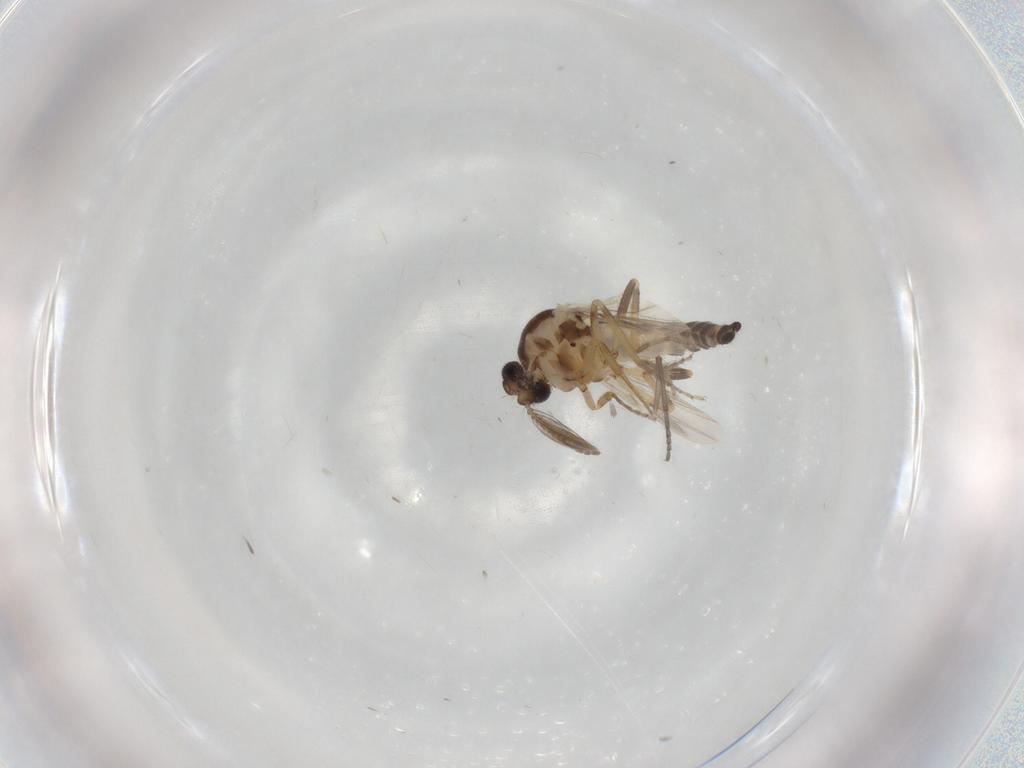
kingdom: Animalia
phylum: Arthropoda
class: Insecta
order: Diptera
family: Ceratopogonidae
